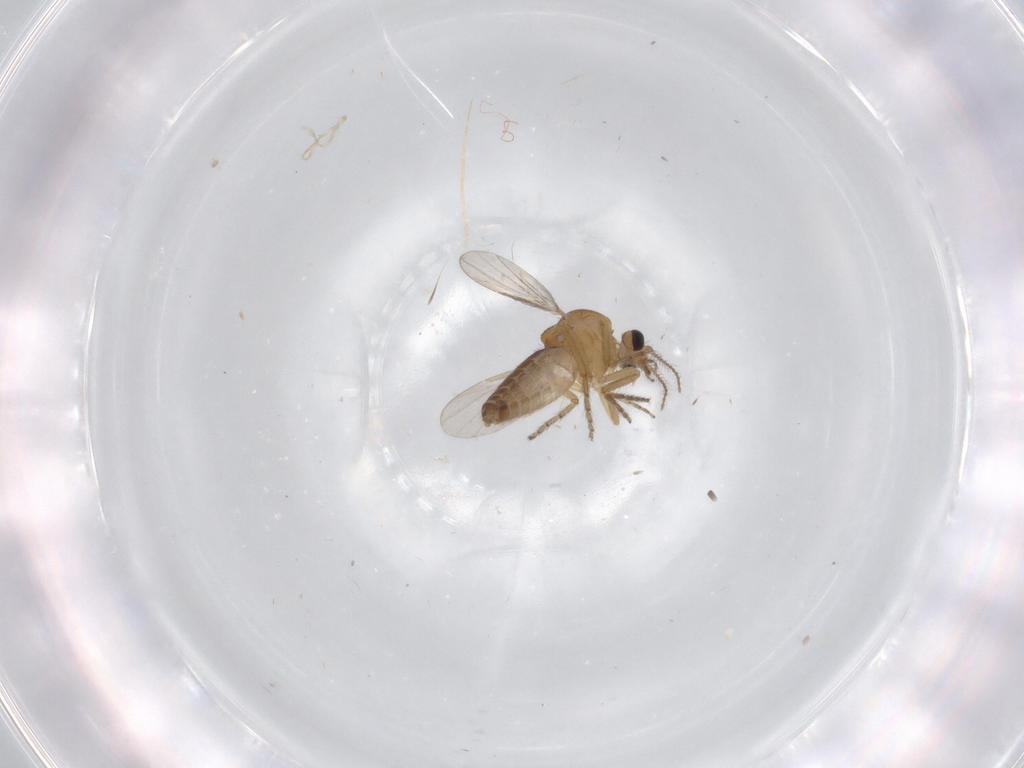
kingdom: Animalia
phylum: Arthropoda
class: Insecta
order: Diptera
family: Ceratopogonidae
